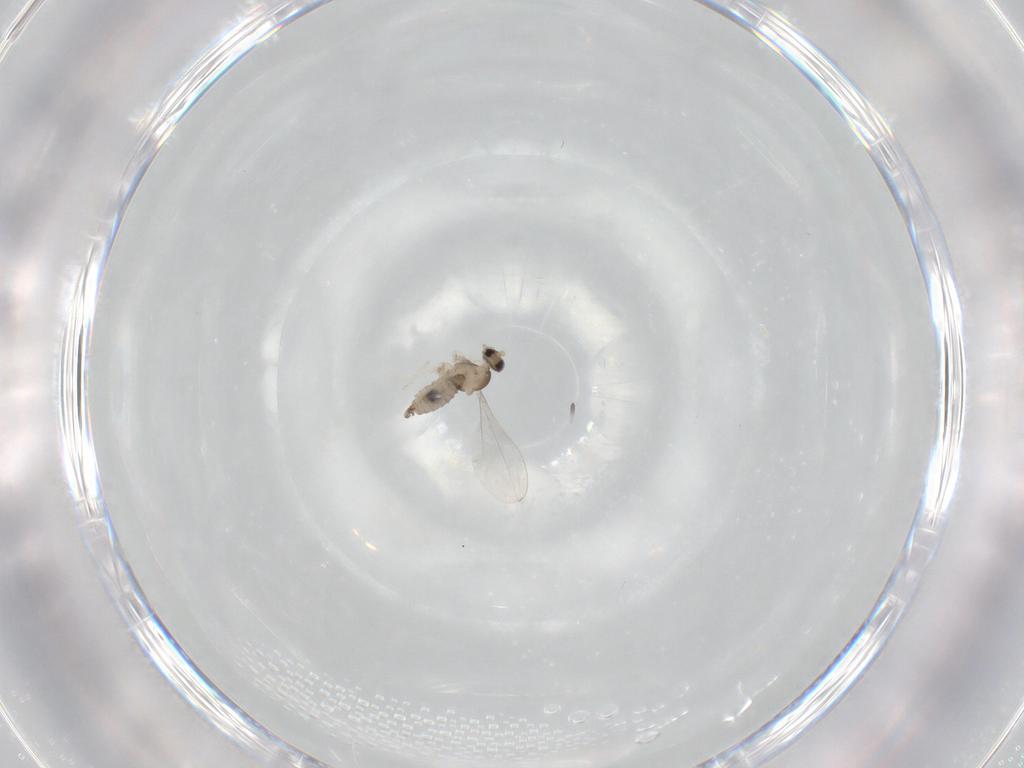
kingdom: Animalia
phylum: Arthropoda
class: Insecta
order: Diptera
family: Cecidomyiidae
